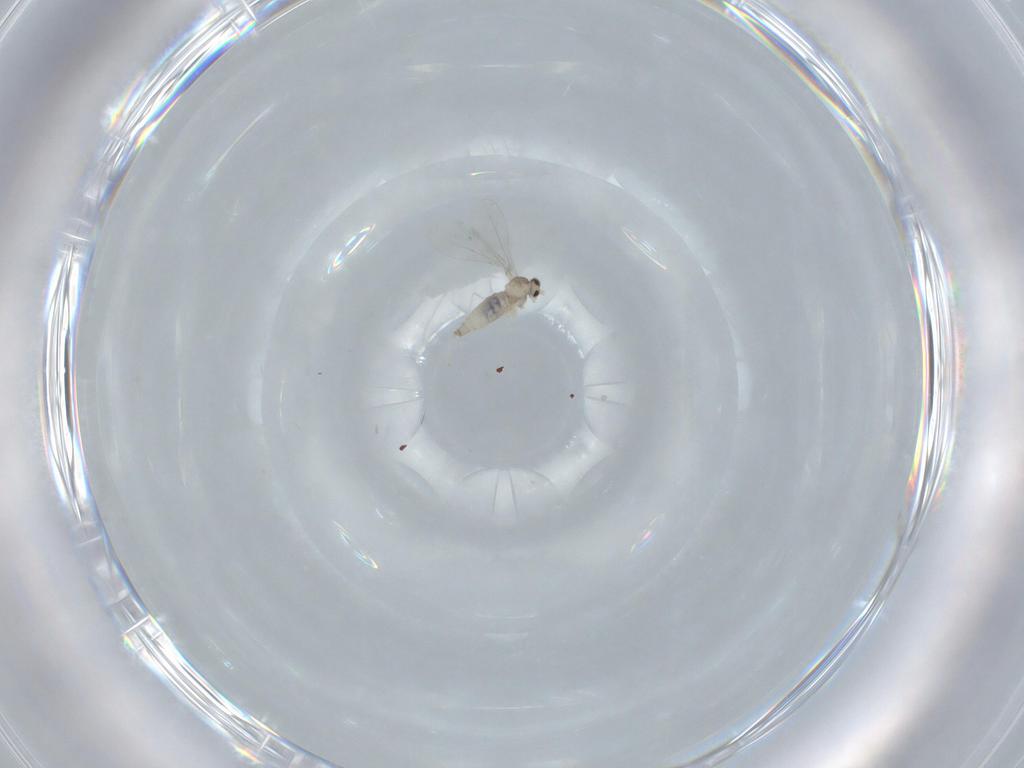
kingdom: Animalia
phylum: Arthropoda
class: Insecta
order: Diptera
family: Cecidomyiidae
